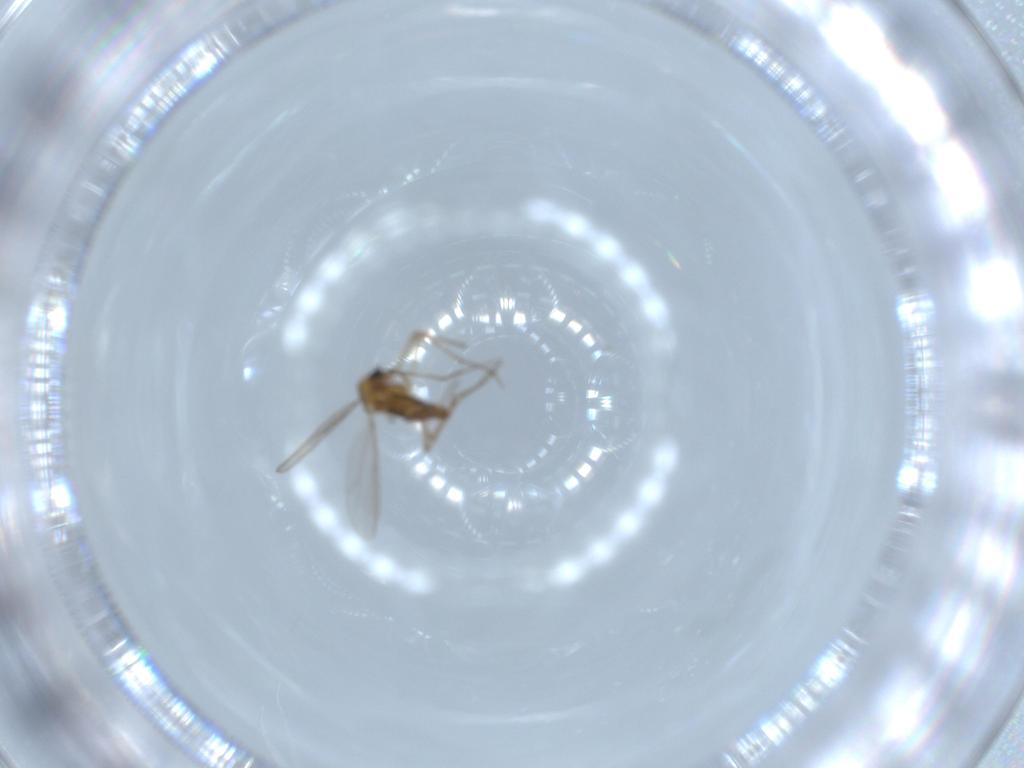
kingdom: Animalia
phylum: Arthropoda
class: Insecta
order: Diptera
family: Chironomidae
